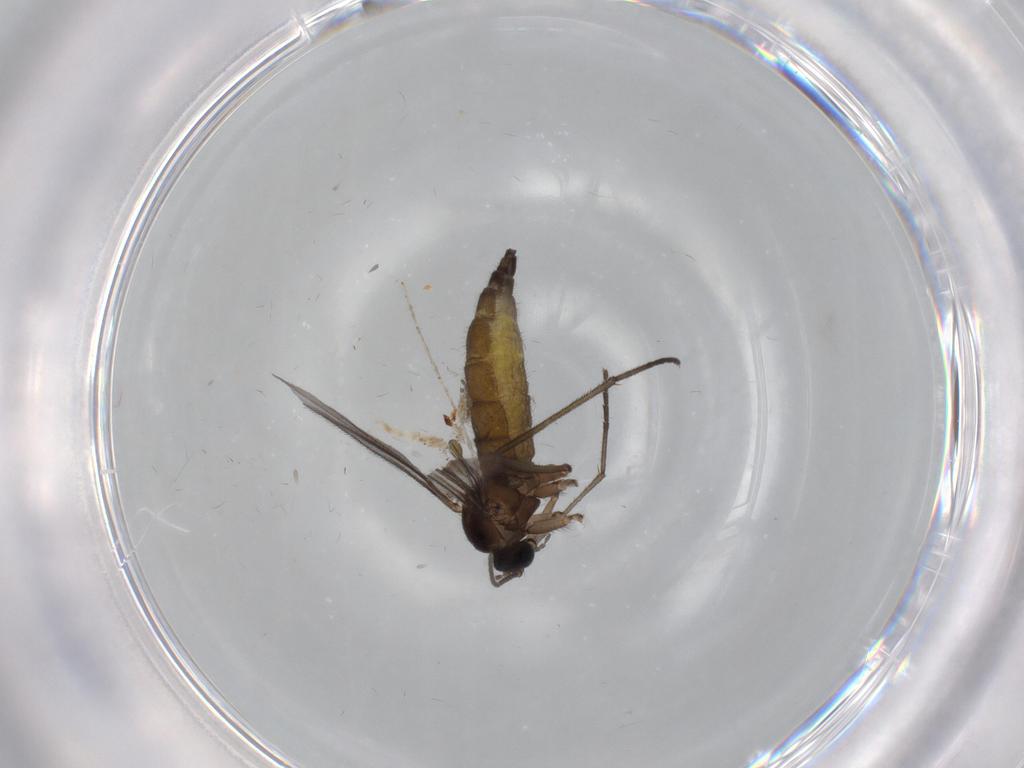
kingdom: Animalia
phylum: Arthropoda
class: Insecta
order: Diptera
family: Sciaridae
